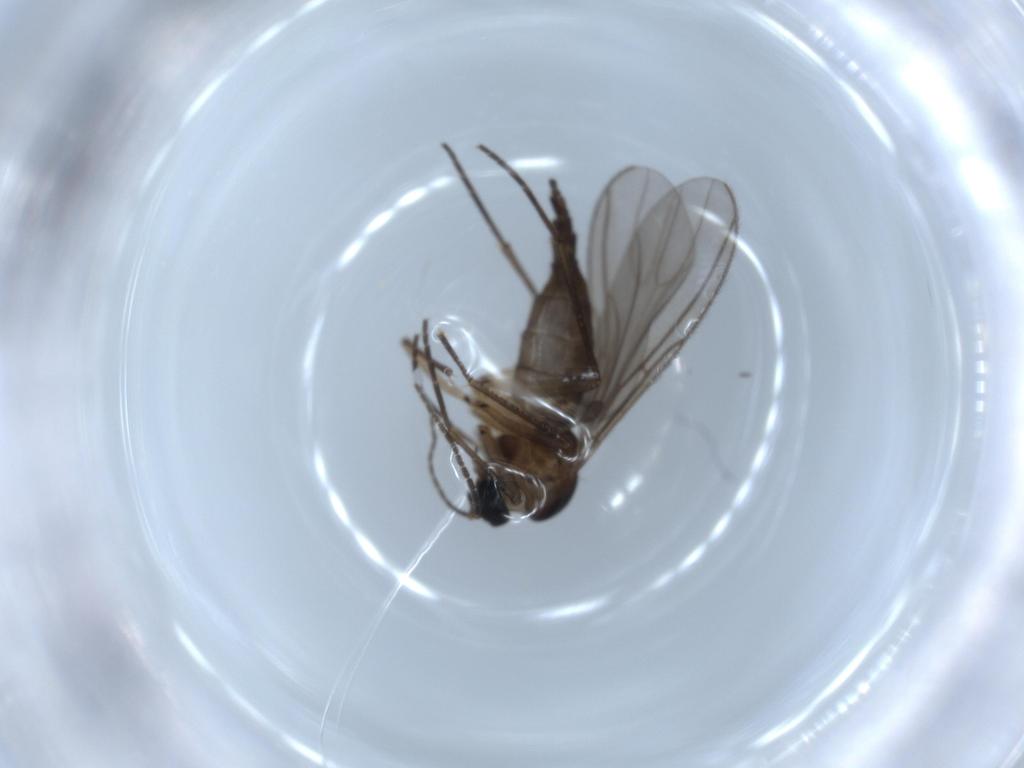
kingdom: Animalia
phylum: Arthropoda
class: Insecta
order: Diptera
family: Sciaridae
